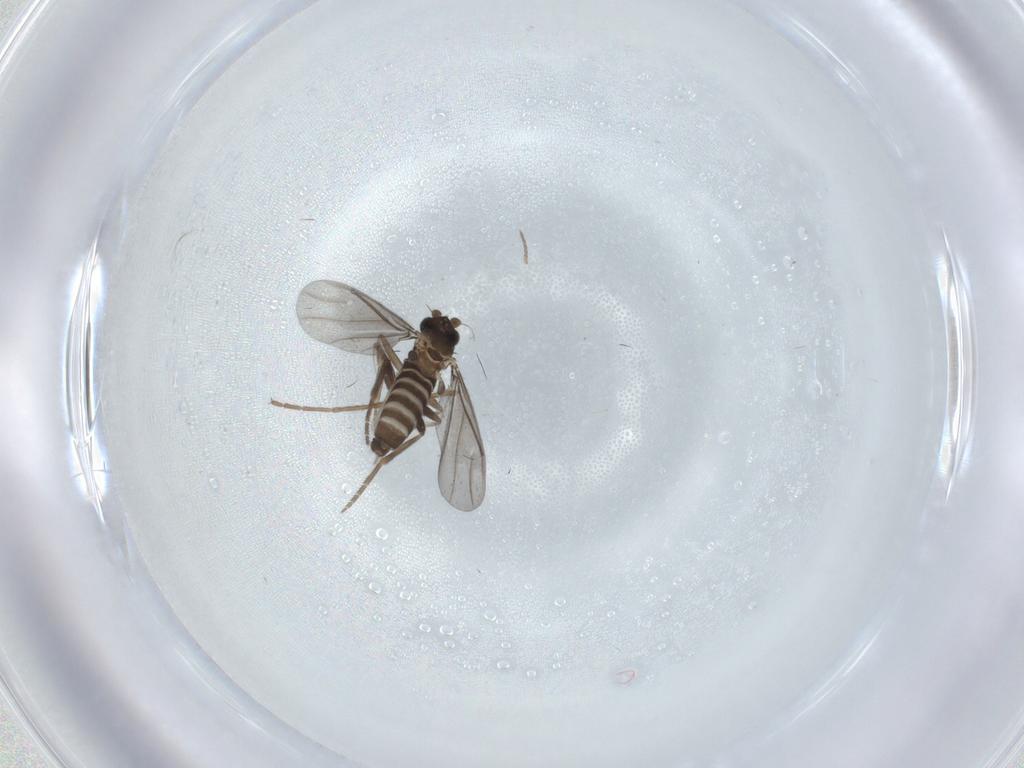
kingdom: Animalia
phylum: Arthropoda
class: Insecta
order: Diptera
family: Phoridae
